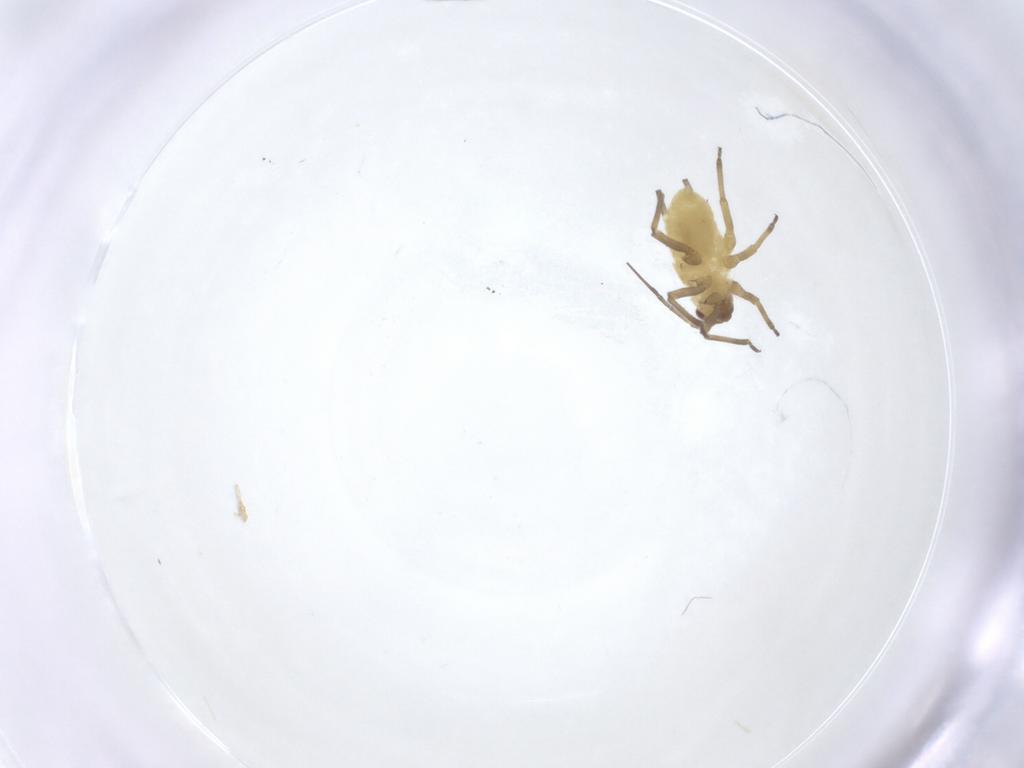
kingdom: Animalia
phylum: Arthropoda
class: Insecta
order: Hemiptera
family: Aphididae
